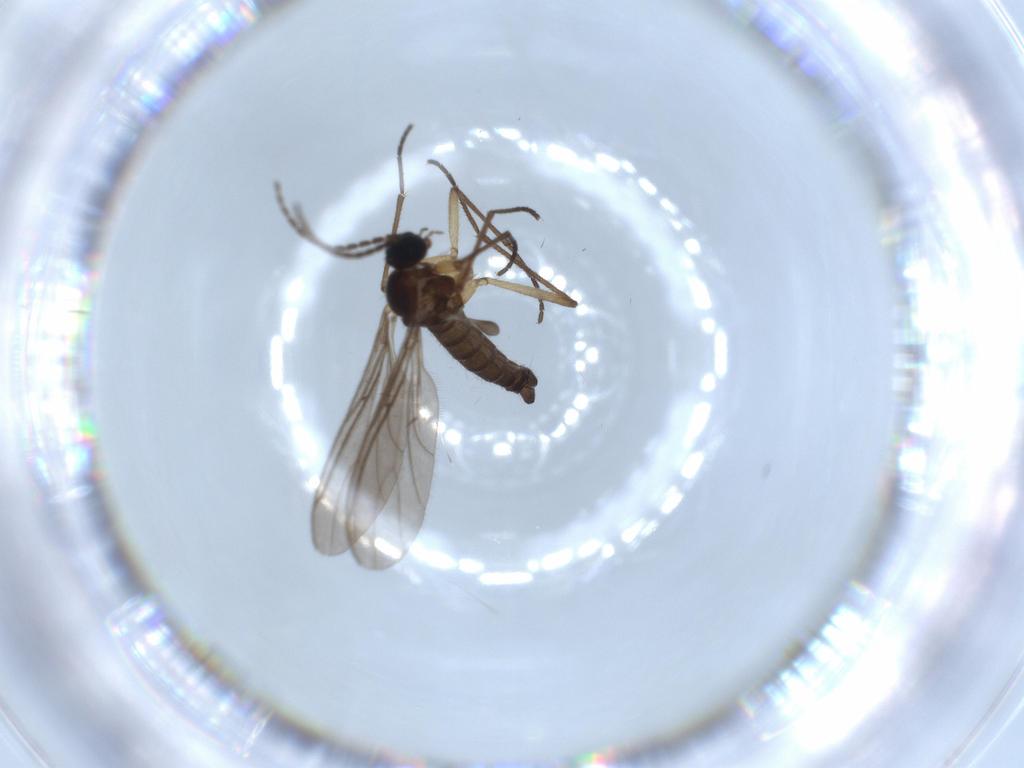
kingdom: Animalia
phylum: Arthropoda
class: Insecta
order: Diptera
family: Sciaridae
